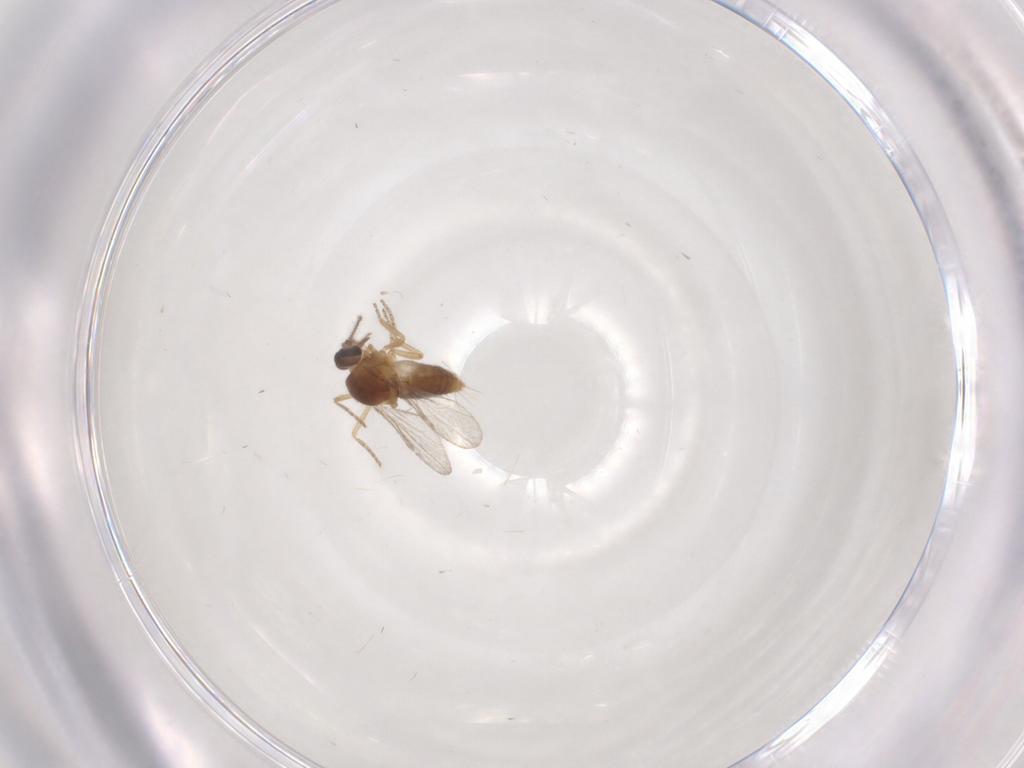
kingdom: Animalia
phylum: Arthropoda
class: Insecta
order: Diptera
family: Ceratopogonidae
